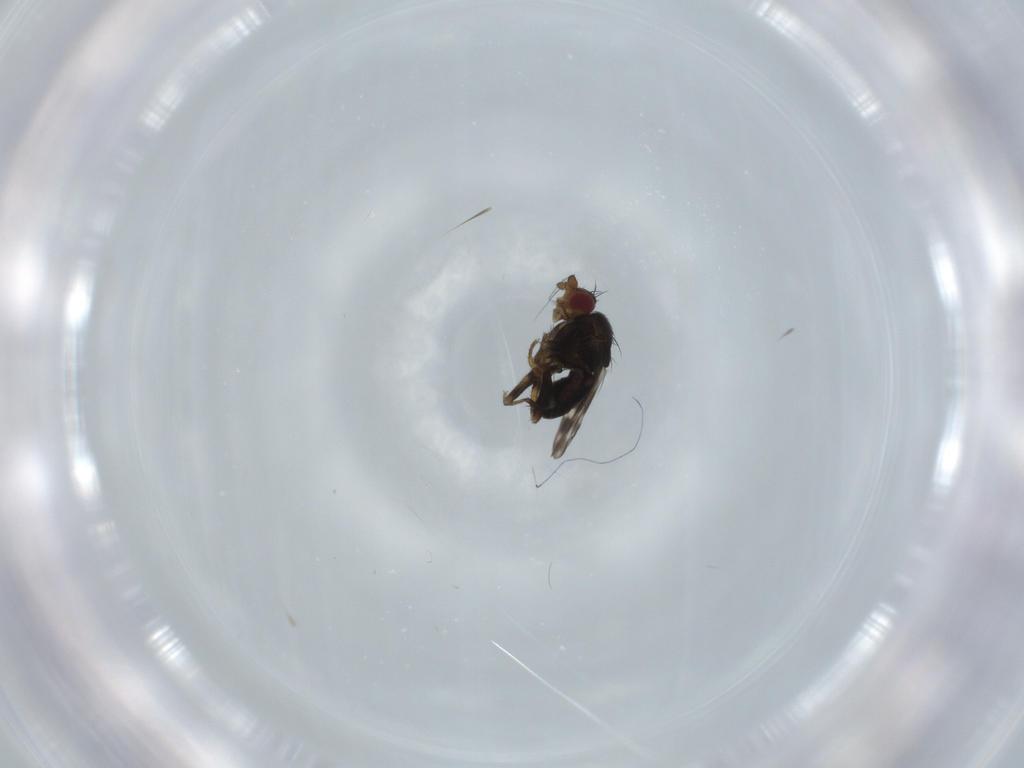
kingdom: Animalia
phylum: Arthropoda
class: Insecta
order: Diptera
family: Sphaeroceridae
